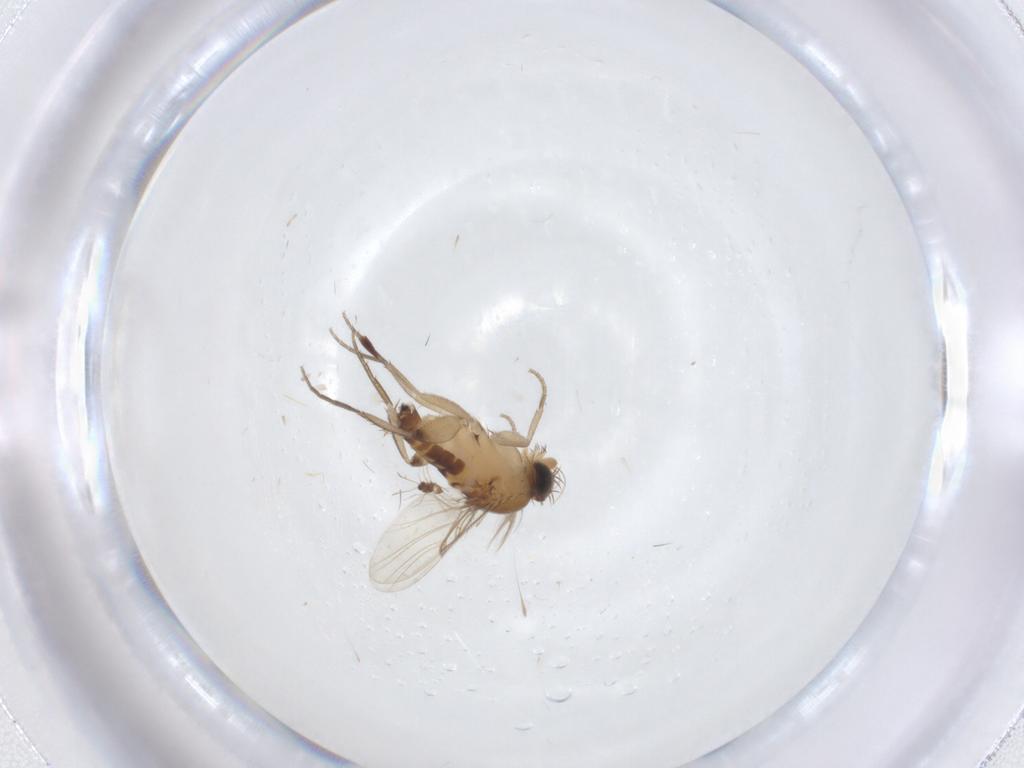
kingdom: Animalia
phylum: Arthropoda
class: Insecta
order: Diptera
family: Phoridae
